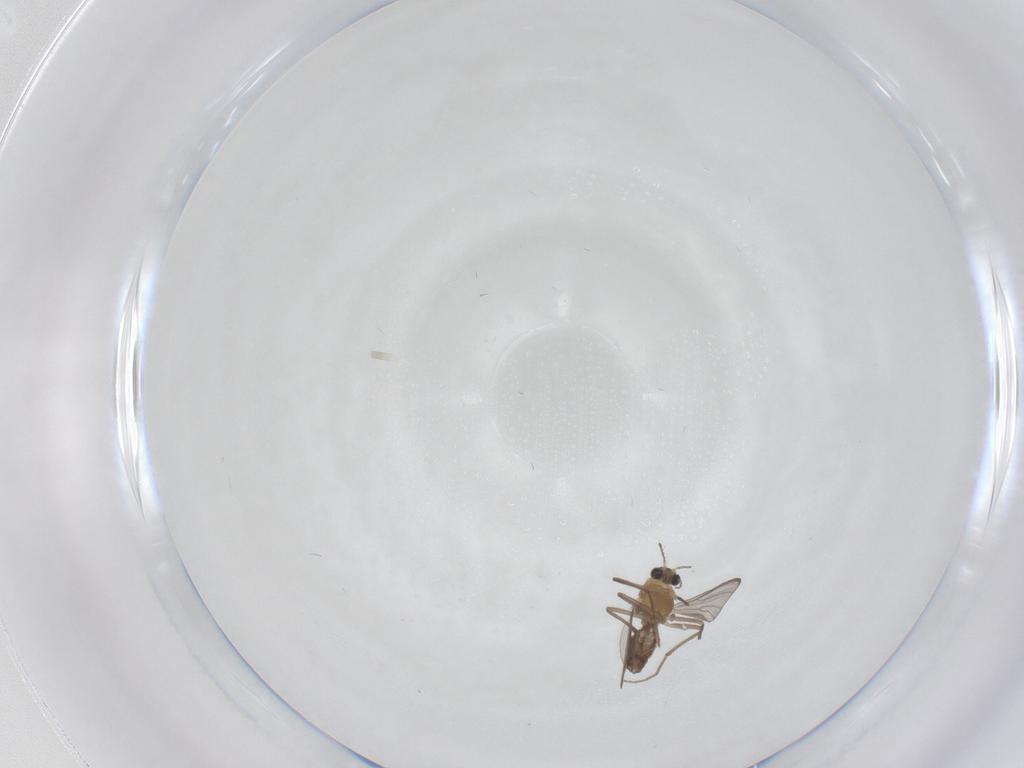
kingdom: Animalia
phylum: Arthropoda
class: Insecta
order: Diptera
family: Chironomidae
